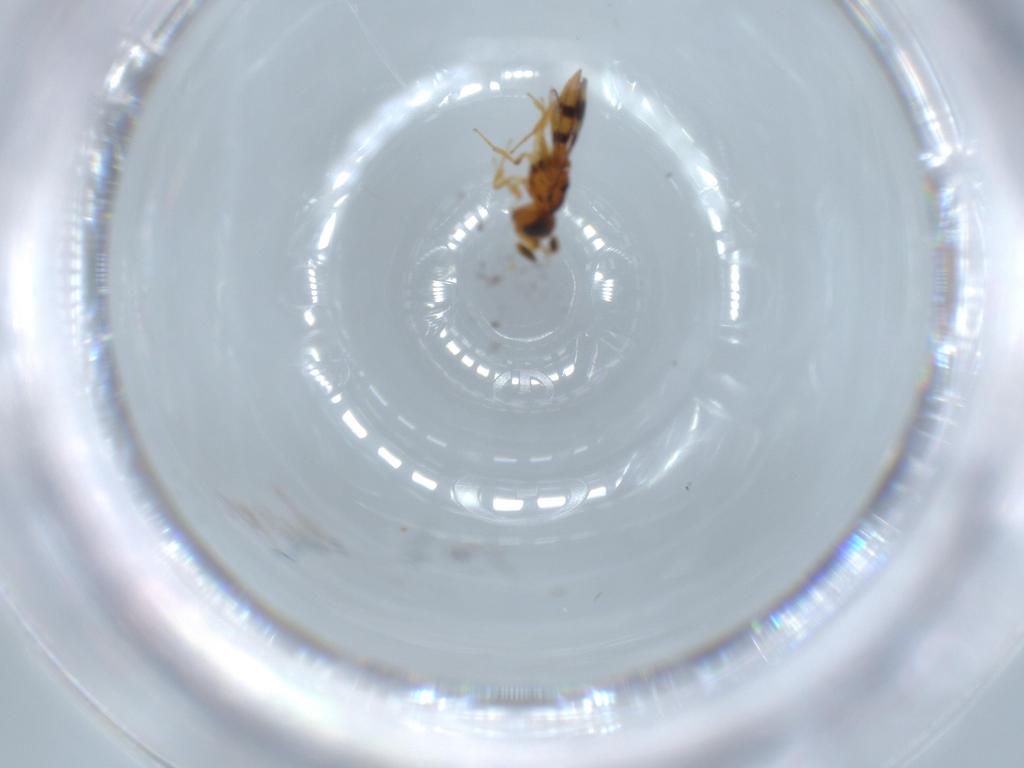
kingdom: Animalia
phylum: Arthropoda
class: Insecta
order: Hymenoptera
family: Scelionidae
